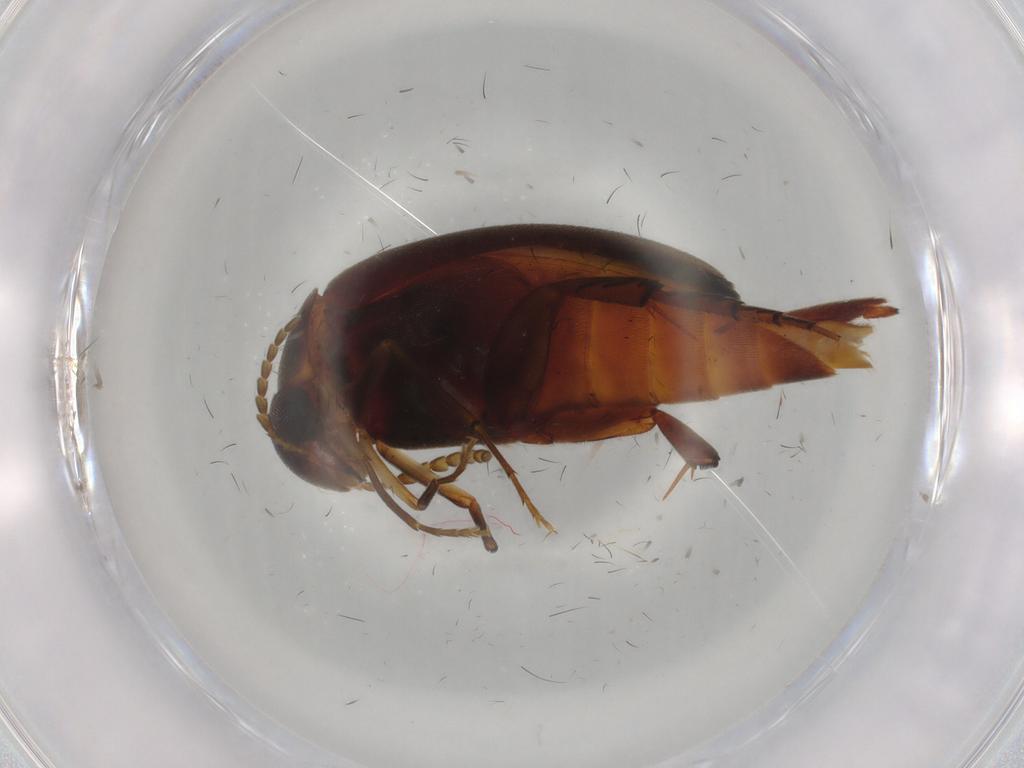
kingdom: Animalia
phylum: Arthropoda
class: Insecta
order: Coleoptera
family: Mordellidae
